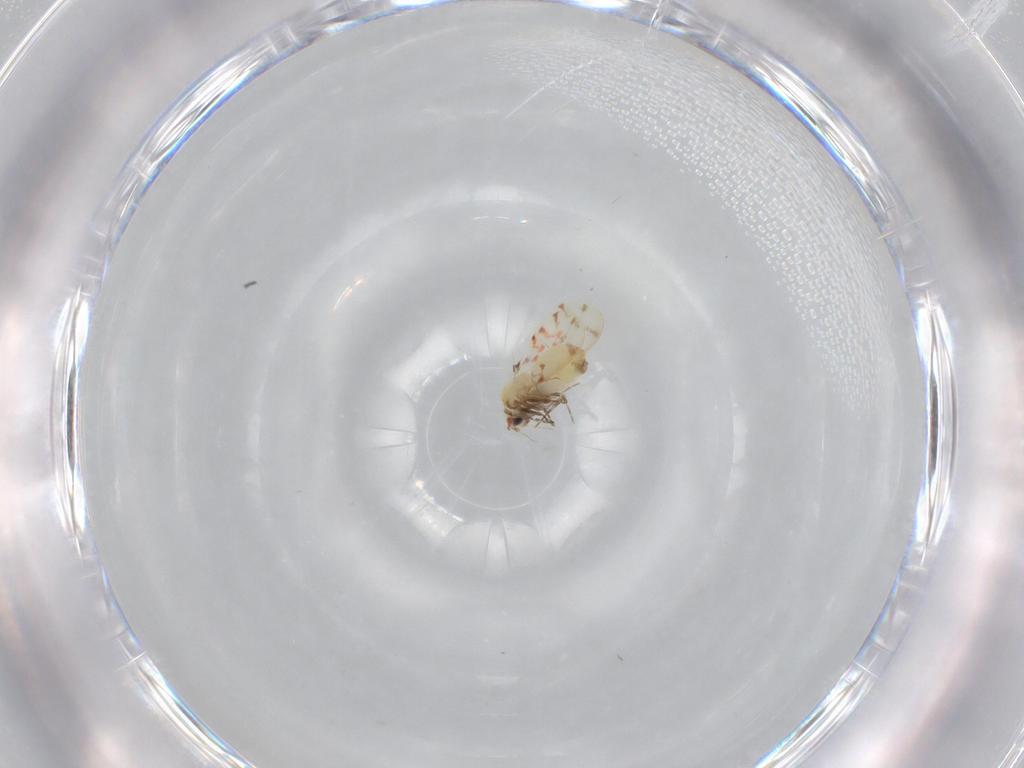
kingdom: Animalia
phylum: Arthropoda
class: Insecta
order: Hemiptera
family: Aleyrodidae
